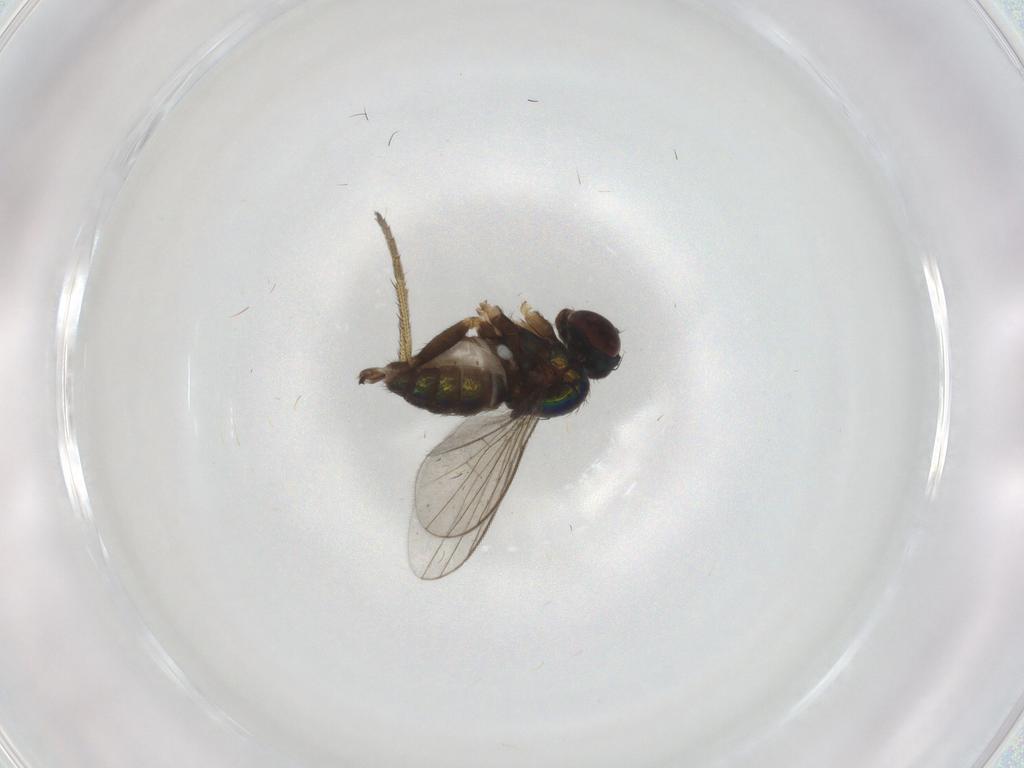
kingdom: Animalia
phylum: Arthropoda
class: Insecta
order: Diptera
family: Dolichopodidae
